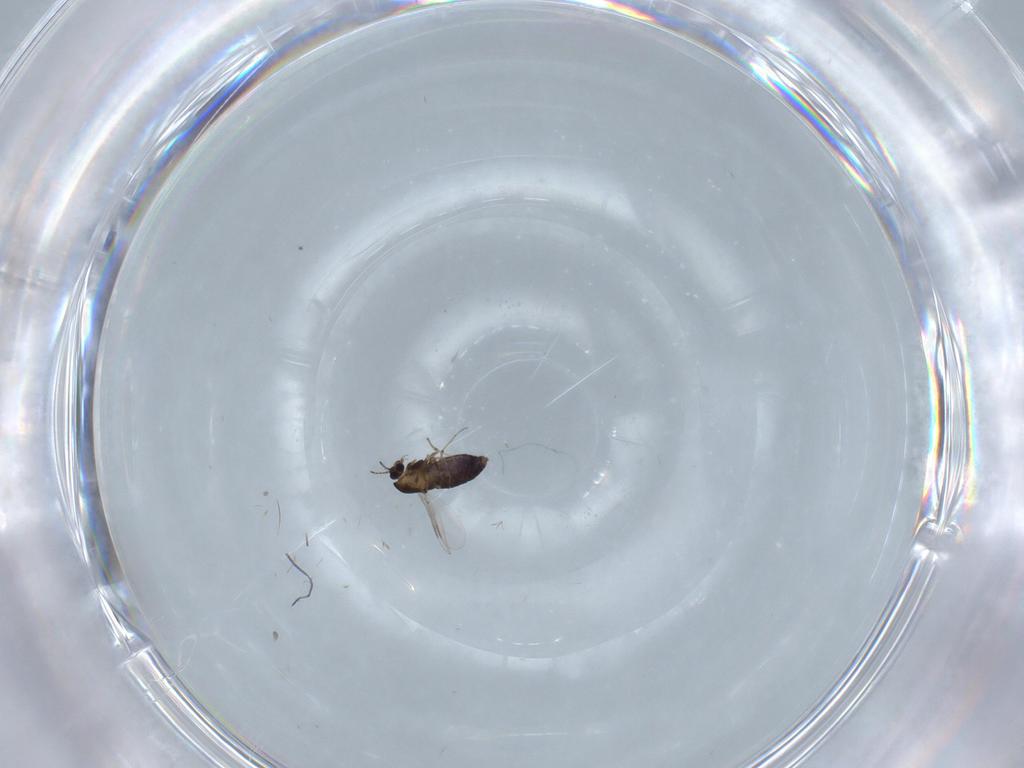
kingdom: Animalia
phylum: Arthropoda
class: Insecta
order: Diptera
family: Chironomidae
